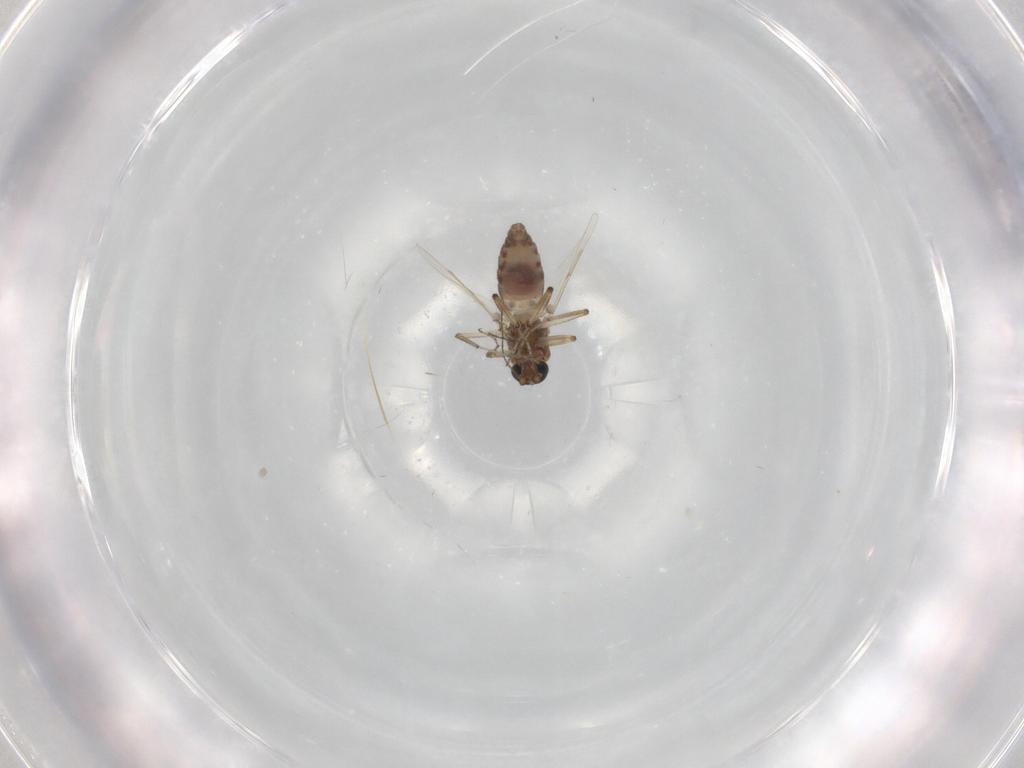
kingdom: Animalia
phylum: Arthropoda
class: Insecta
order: Diptera
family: Ceratopogonidae
